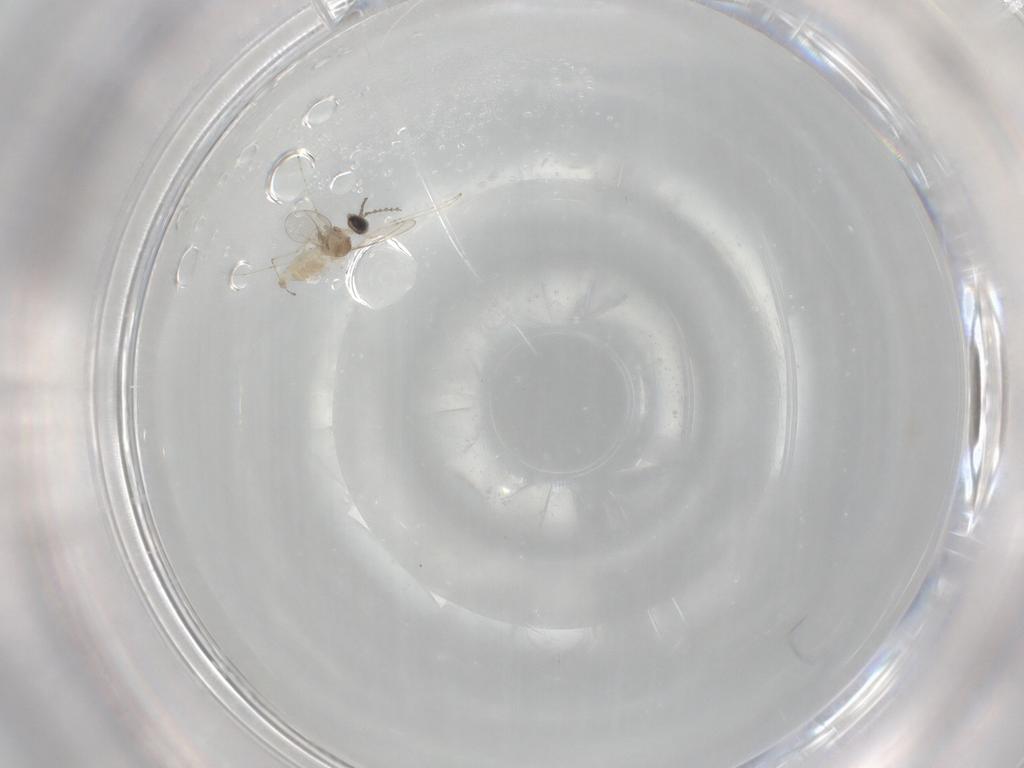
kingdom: Animalia
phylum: Arthropoda
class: Insecta
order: Diptera
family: Cecidomyiidae
